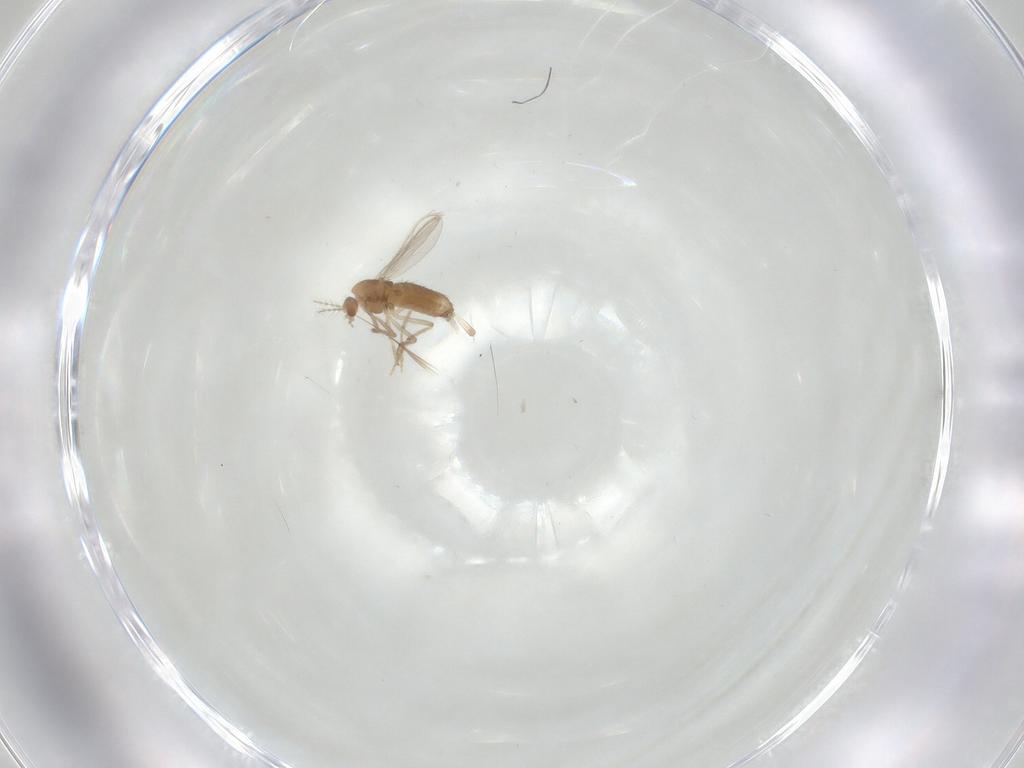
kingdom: Animalia
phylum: Arthropoda
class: Insecta
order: Diptera
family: Chironomidae
